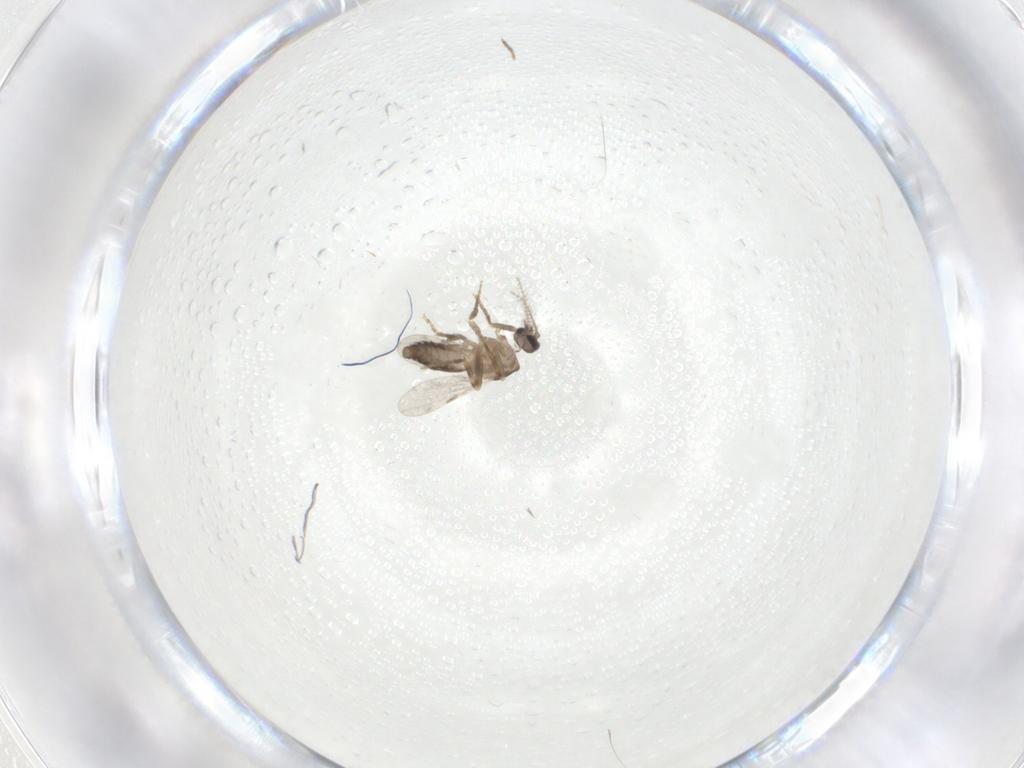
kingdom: Animalia
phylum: Arthropoda
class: Insecta
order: Diptera
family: Ceratopogonidae
